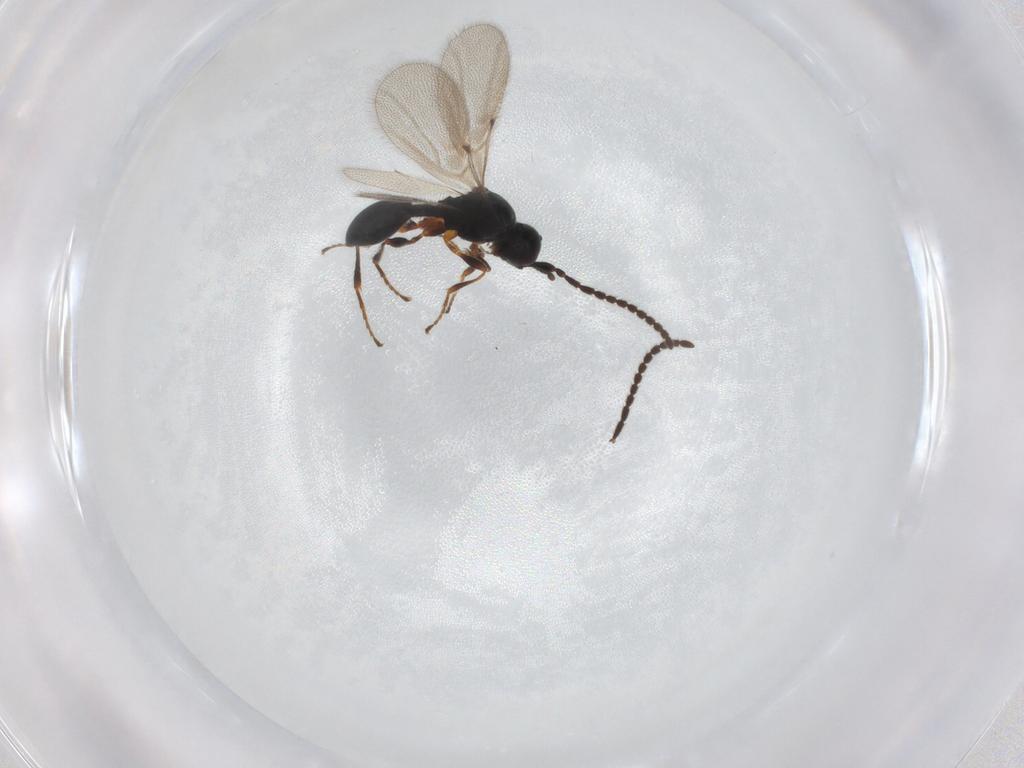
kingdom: Animalia
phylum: Arthropoda
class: Insecta
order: Hymenoptera
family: Diapriidae
